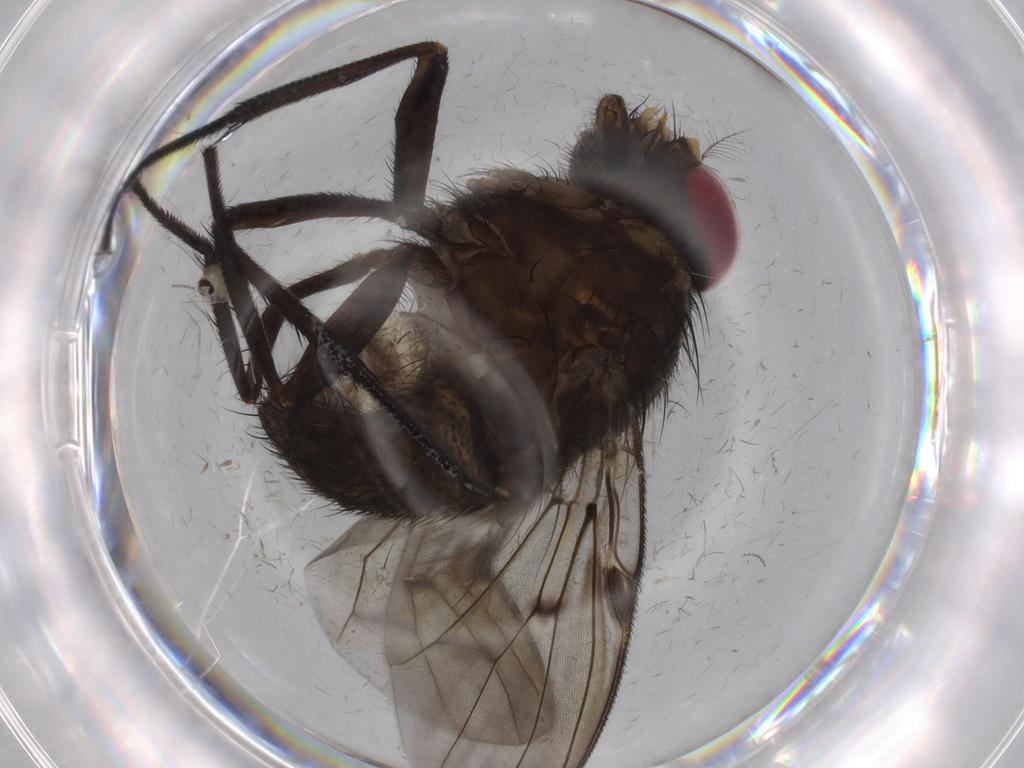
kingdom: Animalia
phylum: Arthropoda
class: Insecta
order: Diptera
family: Muscidae
